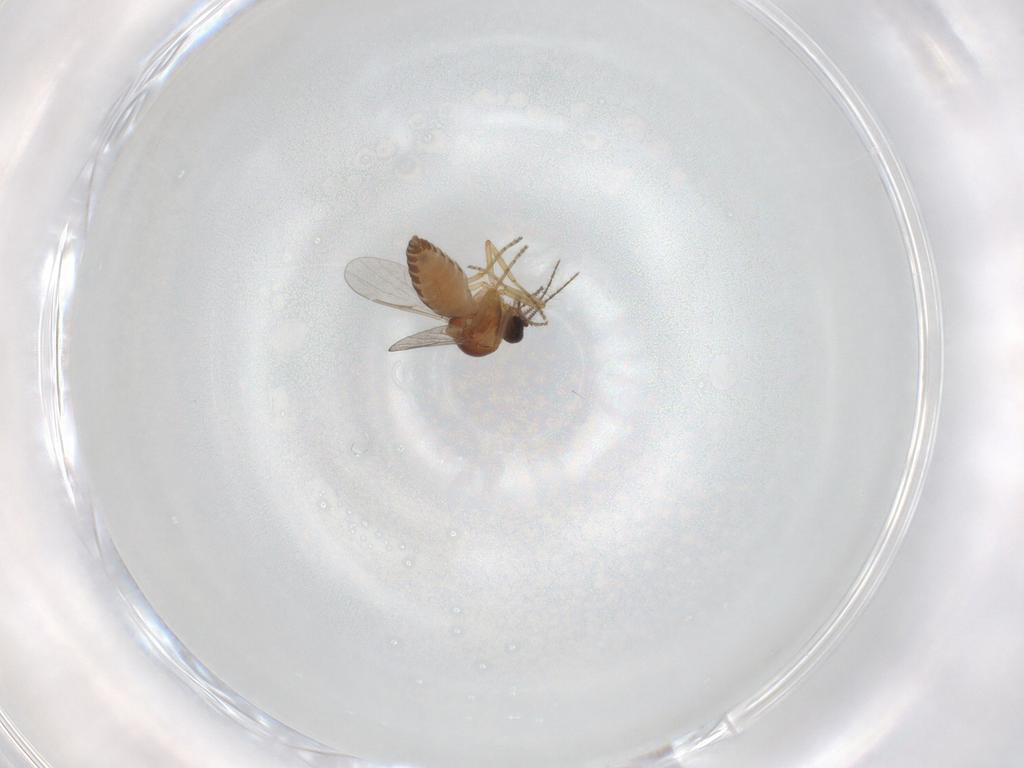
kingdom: Animalia
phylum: Arthropoda
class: Insecta
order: Diptera
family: Ceratopogonidae
